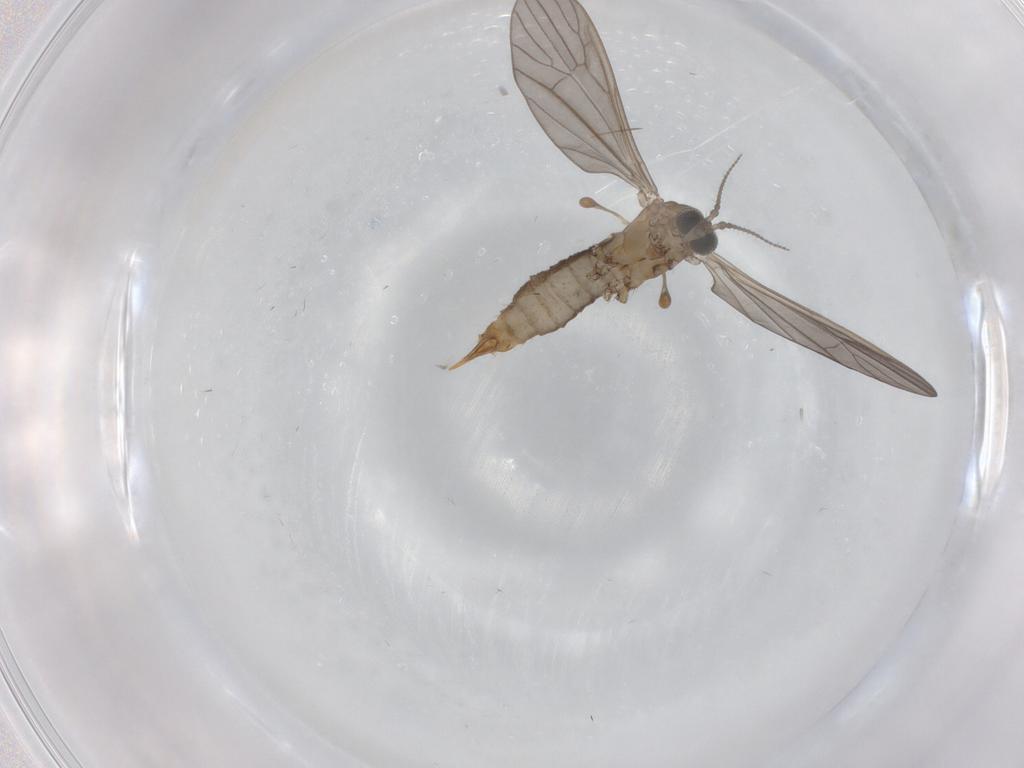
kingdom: Animalia
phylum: Arthropoda
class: Insecta
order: Diptera
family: Limoniidae
